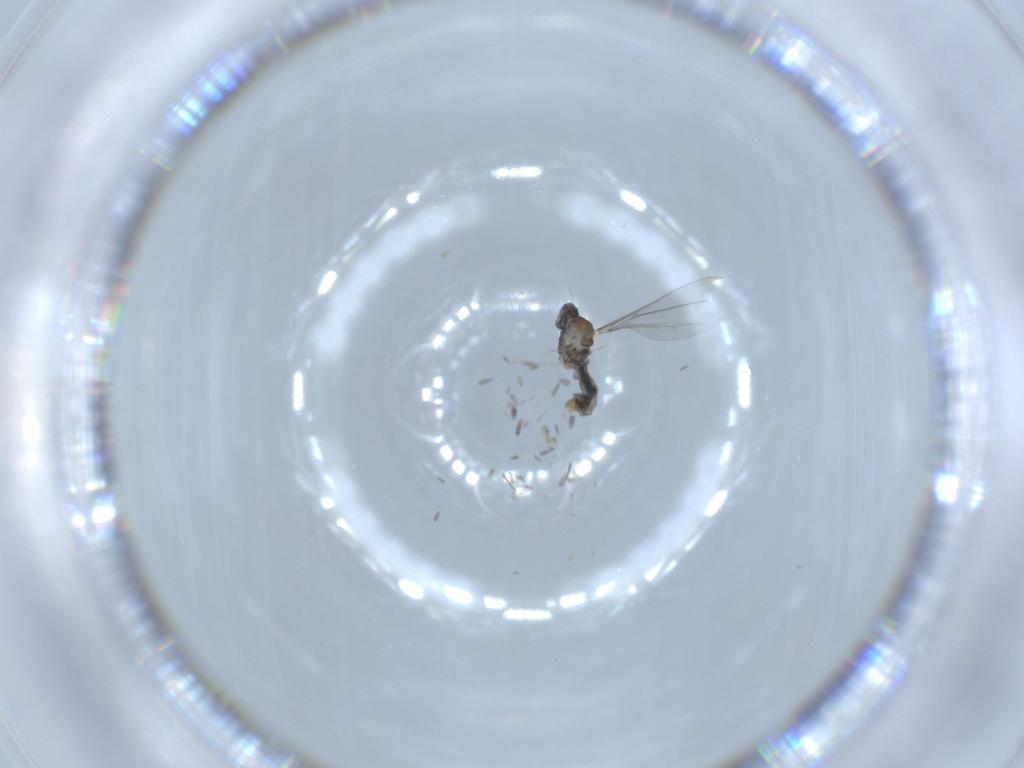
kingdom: Animalia
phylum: Arthropoda
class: Insecta
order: Diptera
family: Cecidomyiidae
